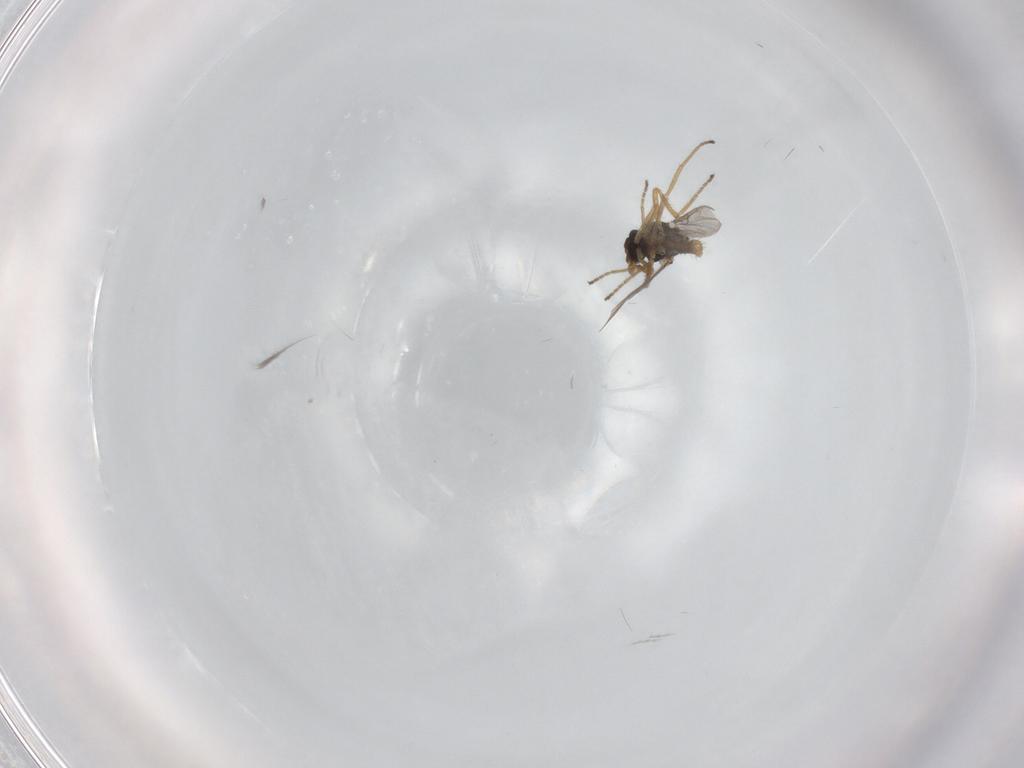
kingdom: Animalia
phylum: Arthropoda
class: Insecta
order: Diptera
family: Ceratopogonidae
